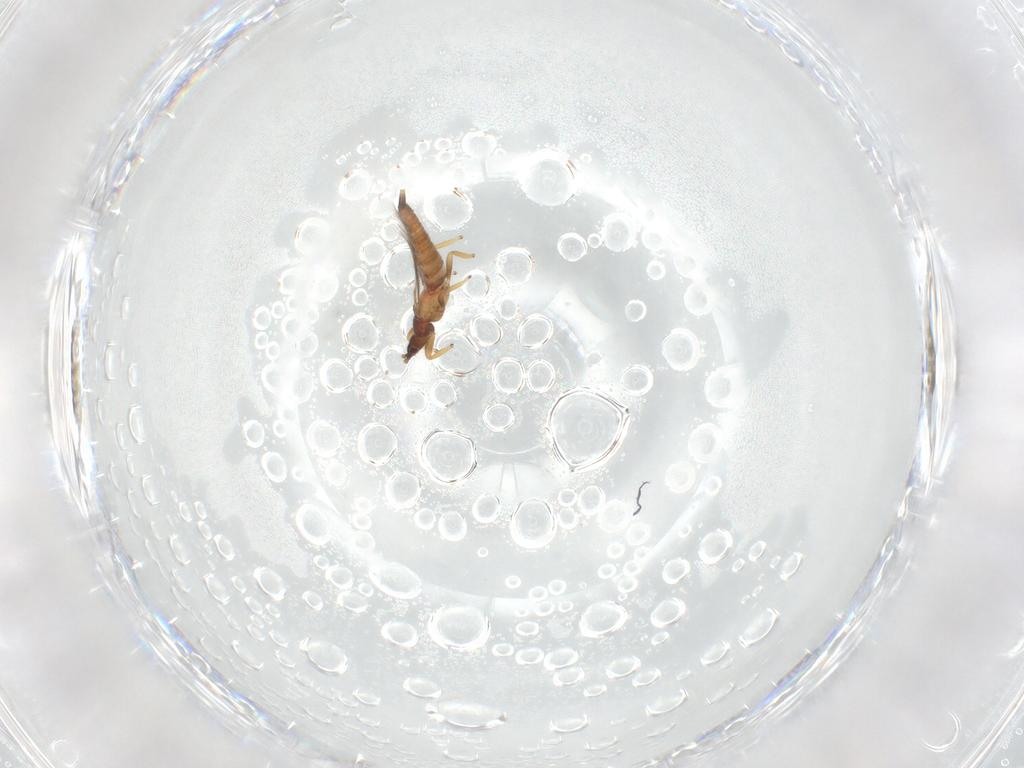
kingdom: Animalia
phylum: Arthropoda
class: Insecta
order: Thysanoptera
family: Phlaeothripidae
